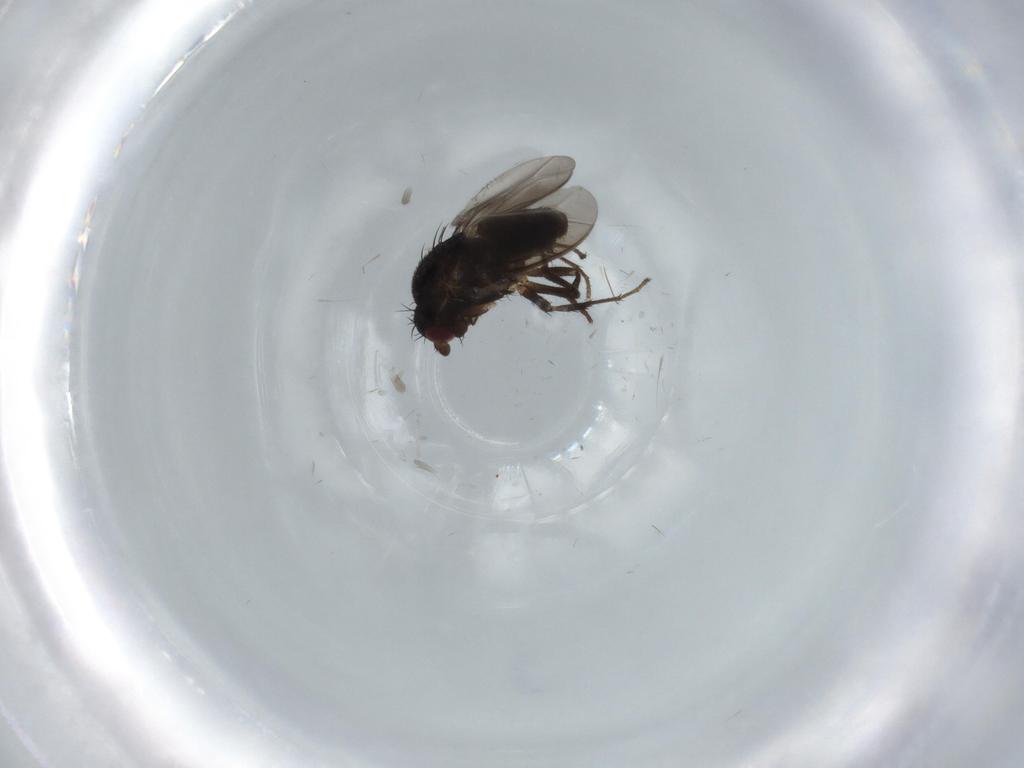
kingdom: Animalia
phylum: Arthropoda
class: Insecta
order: Diptera
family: Sphaeroceridae
